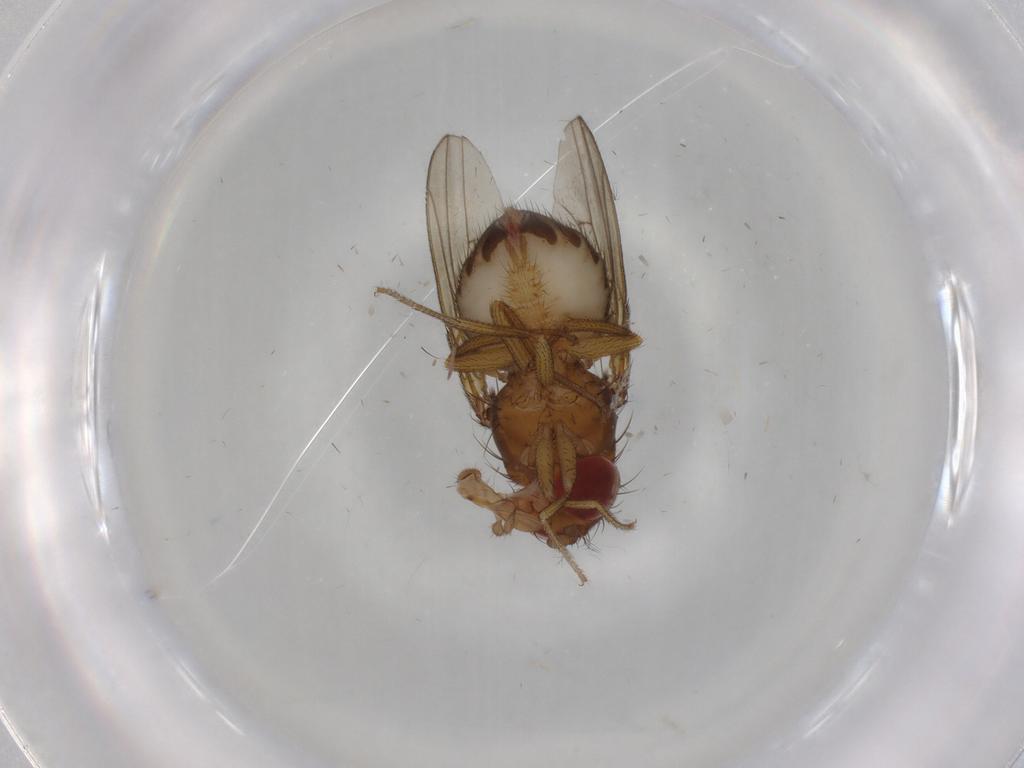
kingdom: Animalia
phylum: Arthropoda
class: Insecta
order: Diptera
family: Drosophilidae
